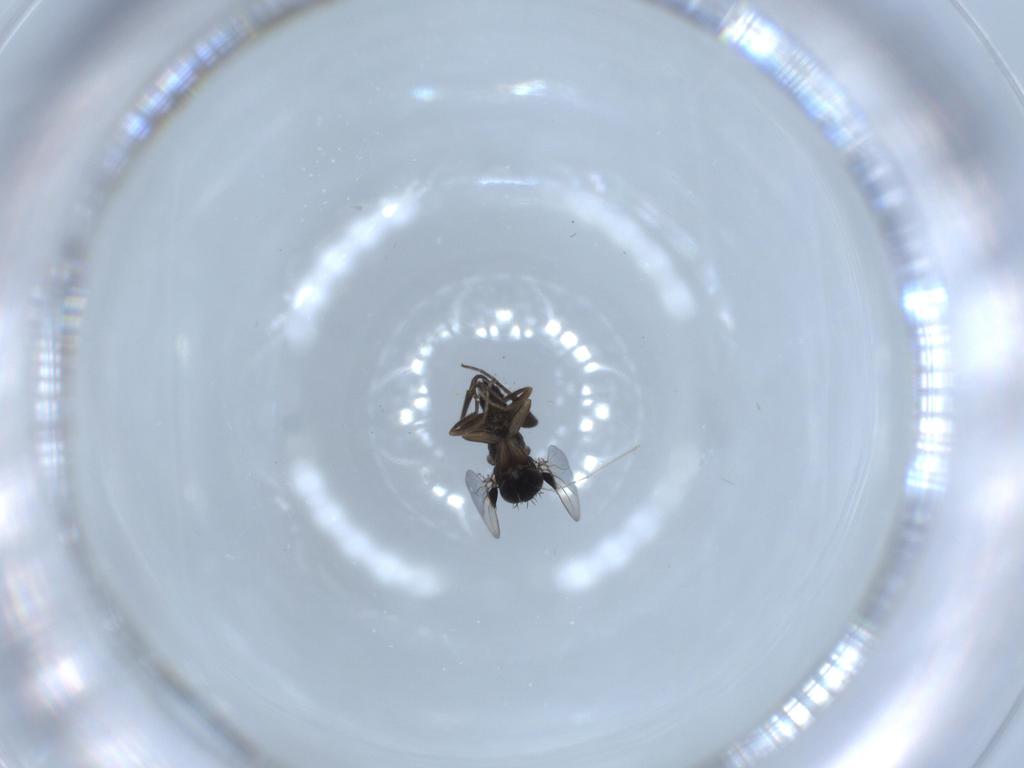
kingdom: Animalia
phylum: Arthropoda
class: Insecta
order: Diptera
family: Phoridae
